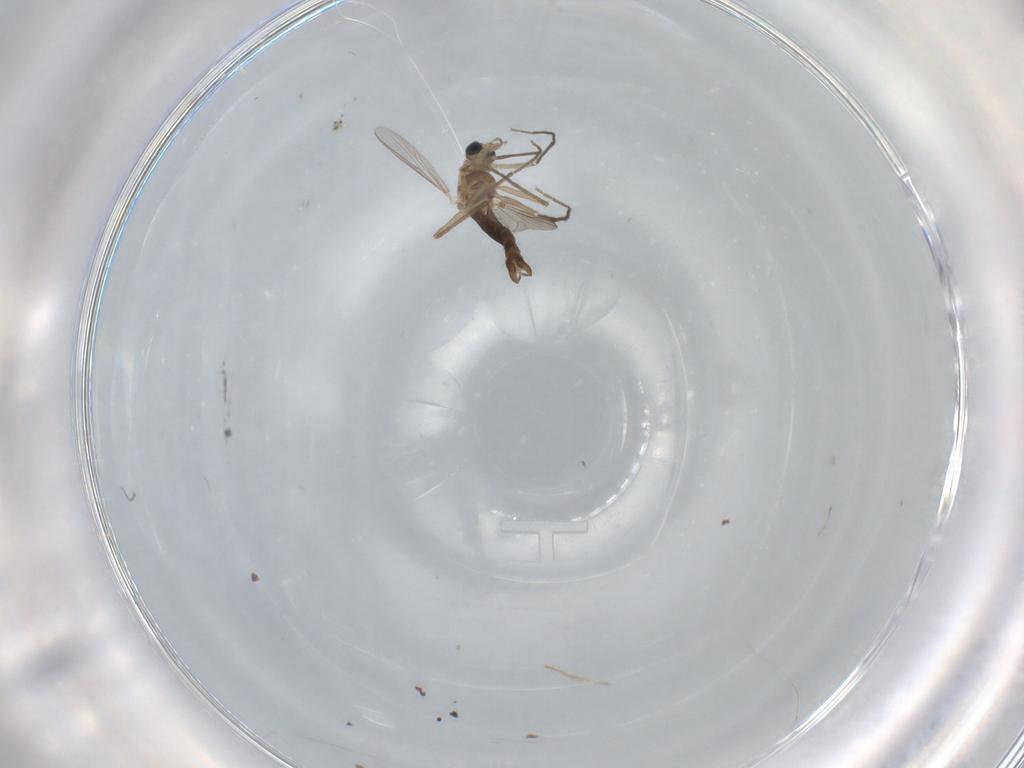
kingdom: Animalia
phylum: Arthropoda
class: Insecta
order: Diptera
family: Chironomidae
